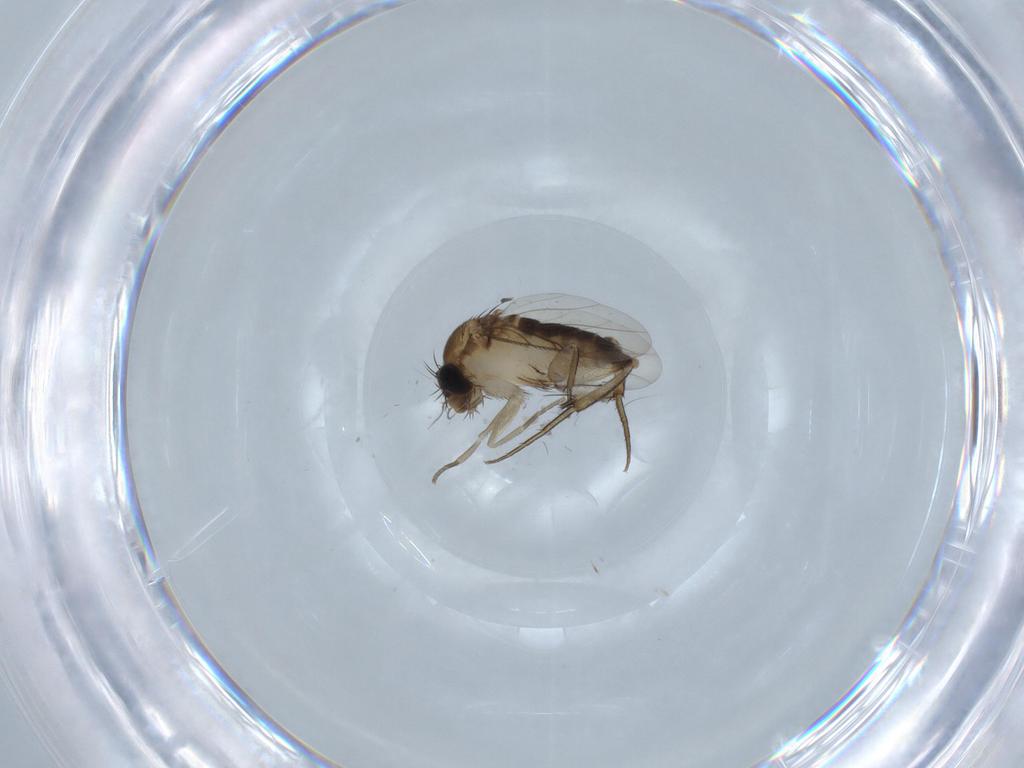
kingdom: Animalia
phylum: Arthropoda
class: Insecta
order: Diptera
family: Phoridae
